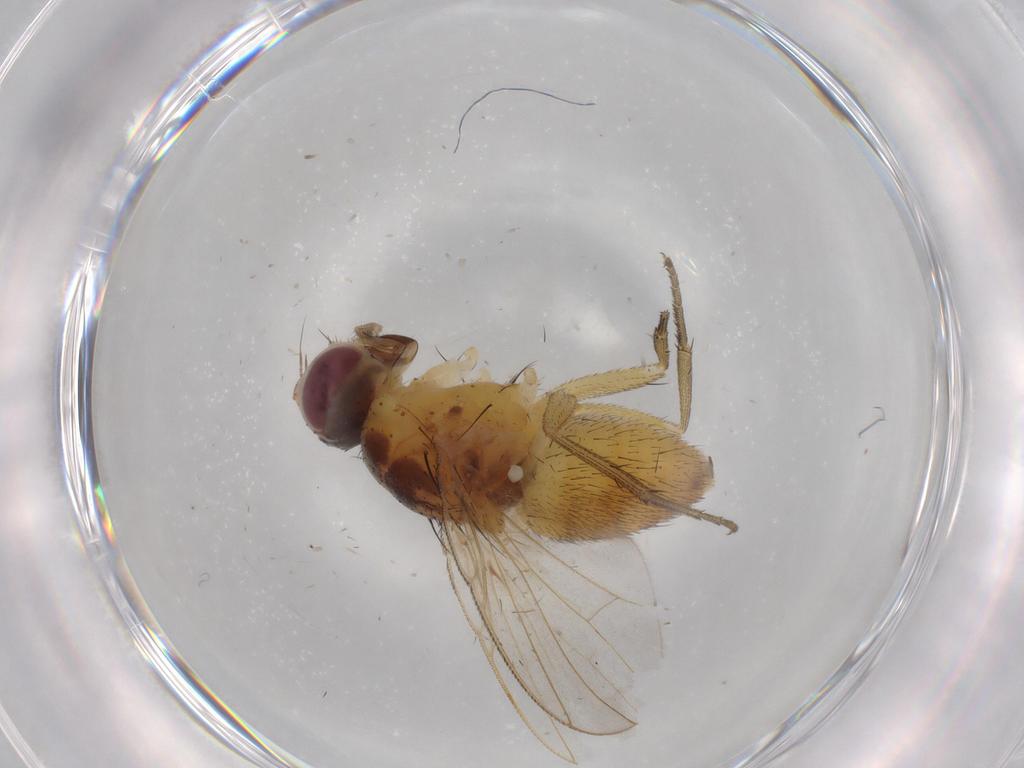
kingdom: Animalia
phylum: Arthropoda
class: Insecta
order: Diptera
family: Muscidae
